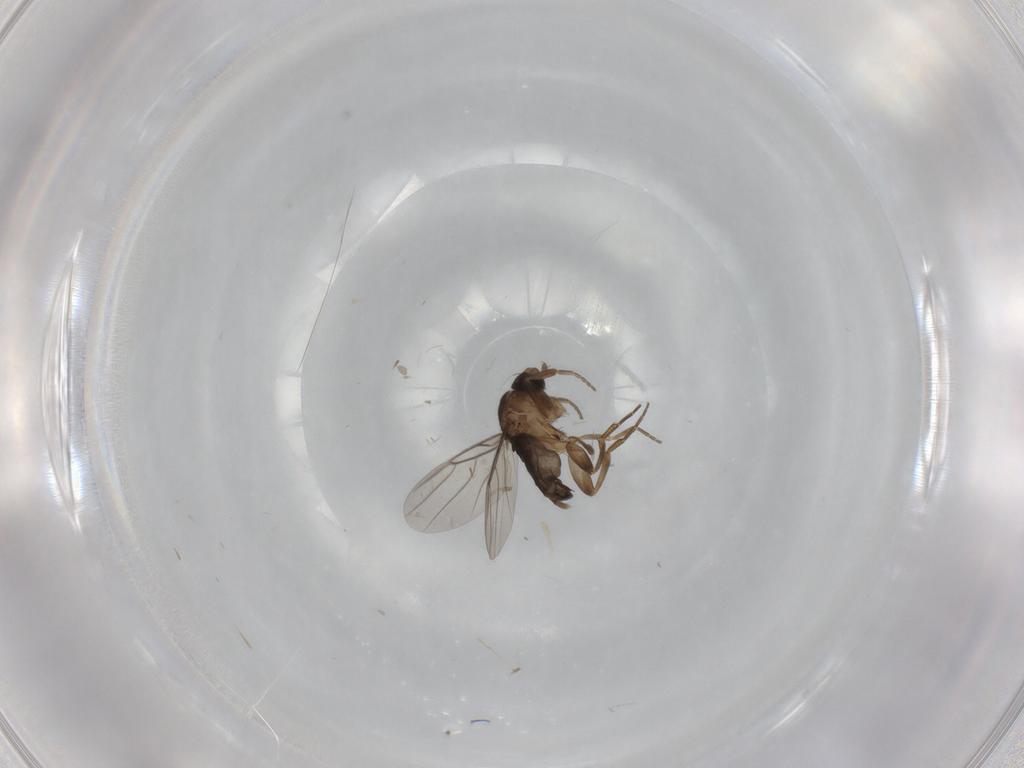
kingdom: Animalia
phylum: Arthropoda
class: Insecta
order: Diptera
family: Phoridae
